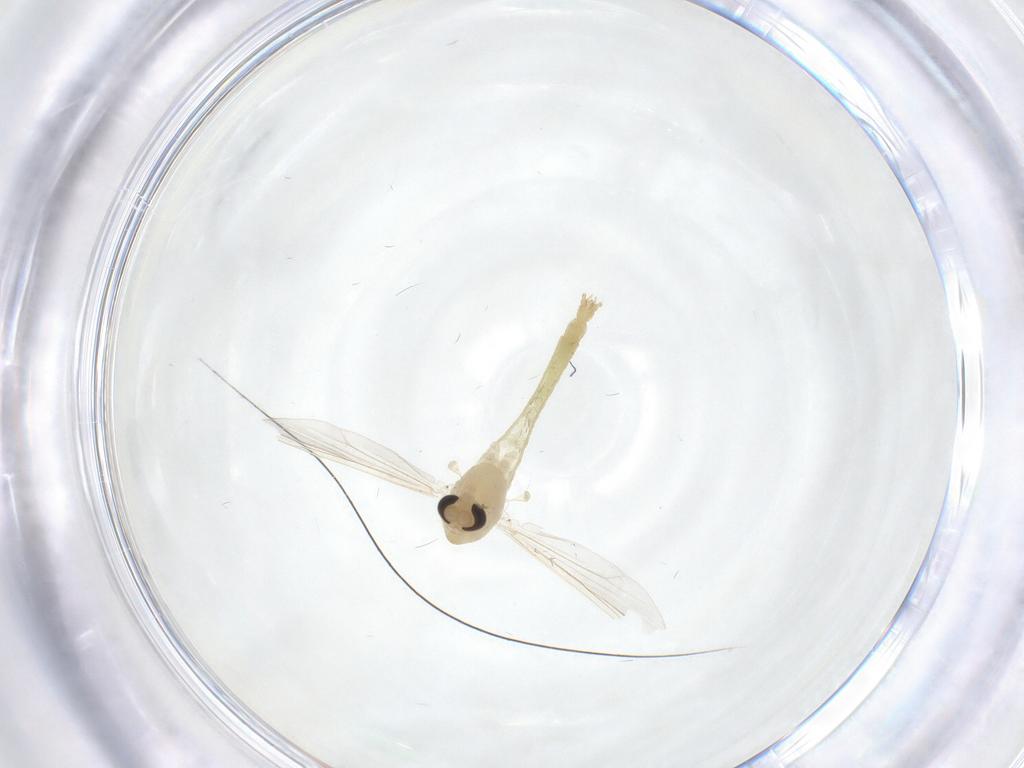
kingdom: Animalia
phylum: Arthropoda
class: Insecta
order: Diptera
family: Chironomidae
